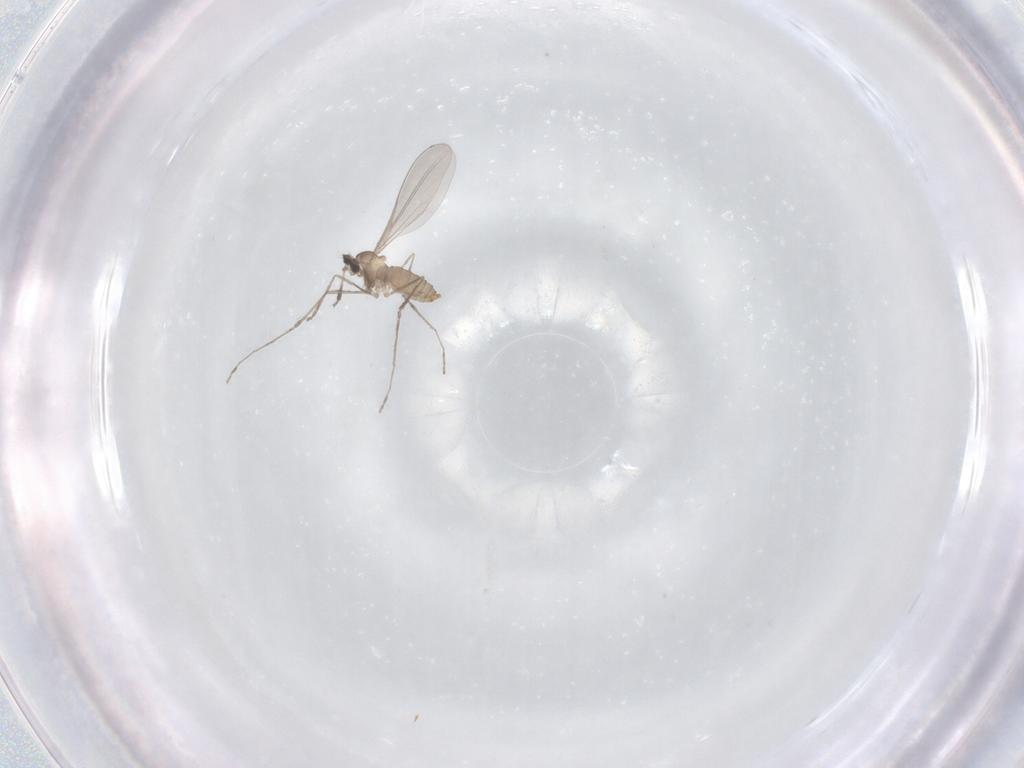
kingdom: Animalia
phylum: Arthropoda
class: Insecta
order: Diptera
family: Cecidomyiidae
